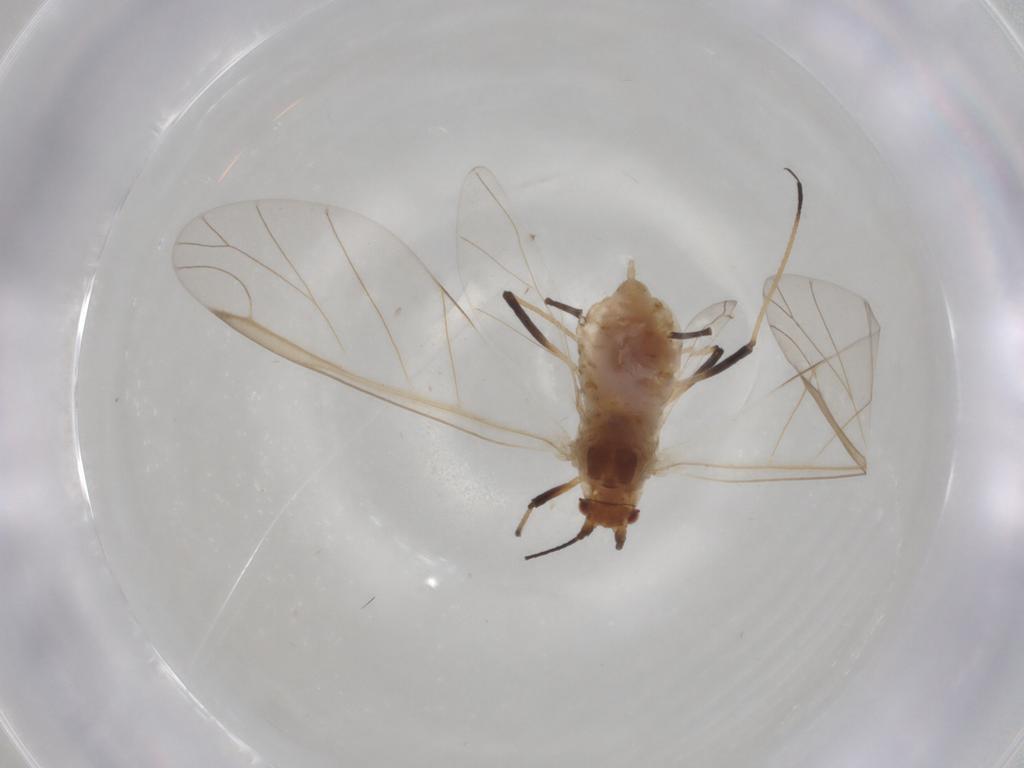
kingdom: Animalia
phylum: Arthropoda
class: Insecta
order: Hemiptera
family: Aphididae
